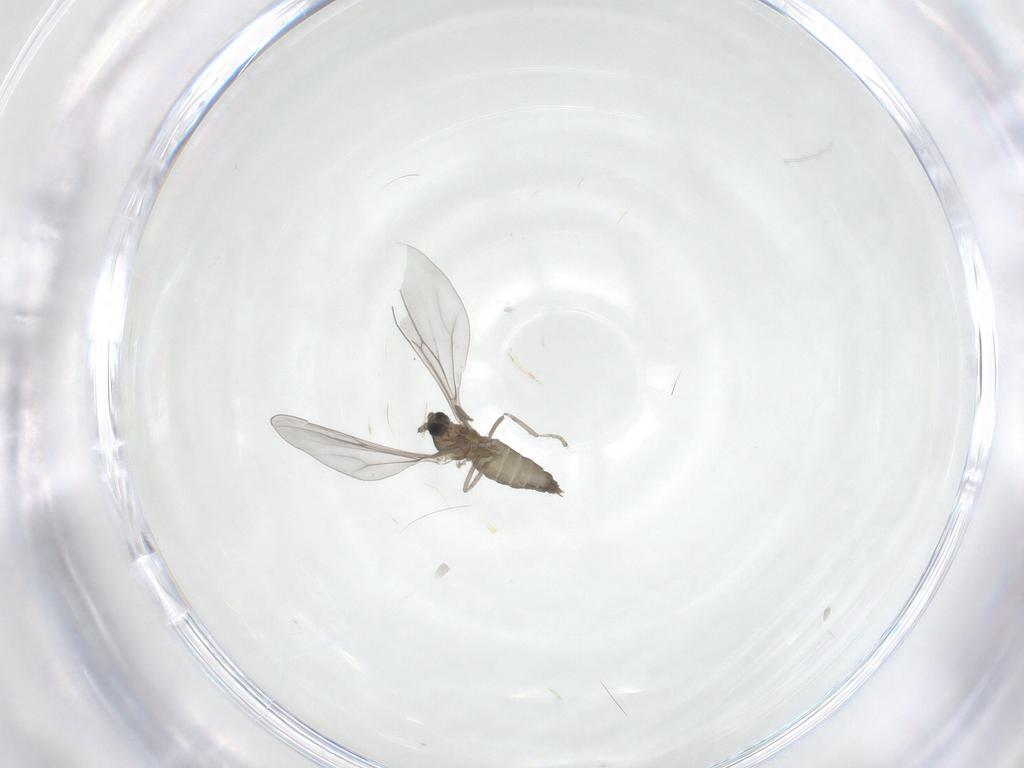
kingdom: Animalia
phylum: Arthropoda
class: Insecta
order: Diptera
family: Cecidomyiidae
